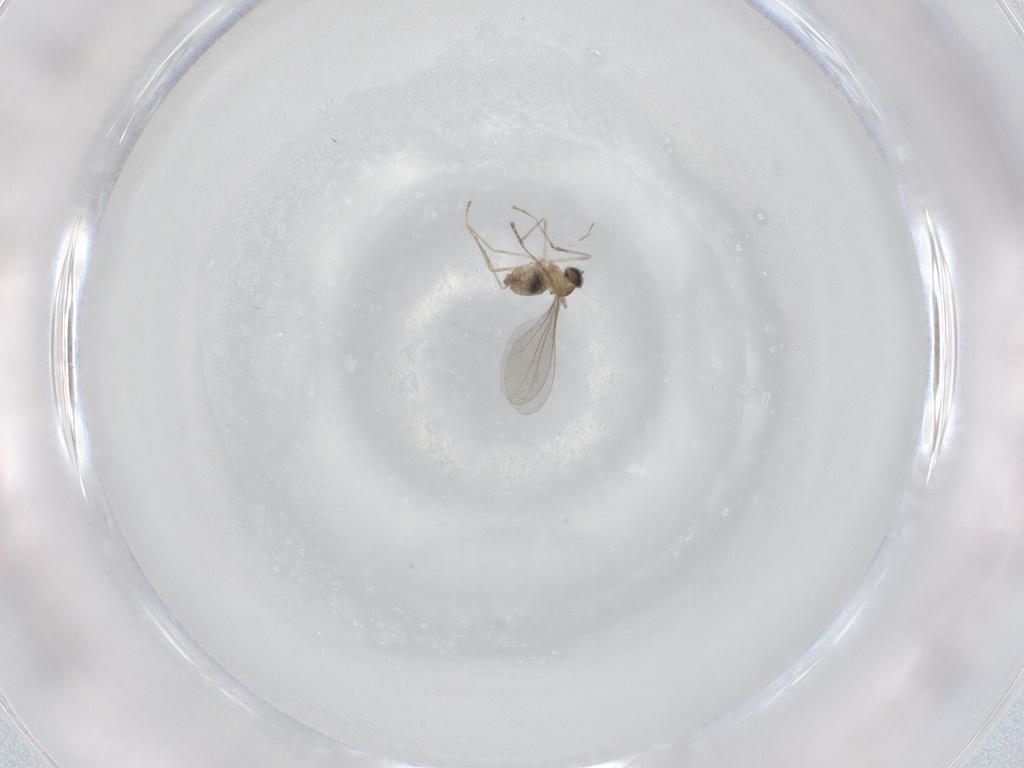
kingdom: Animalia
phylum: Arthropoda
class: Insecta
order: Diptera
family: Cecidomyiidae
